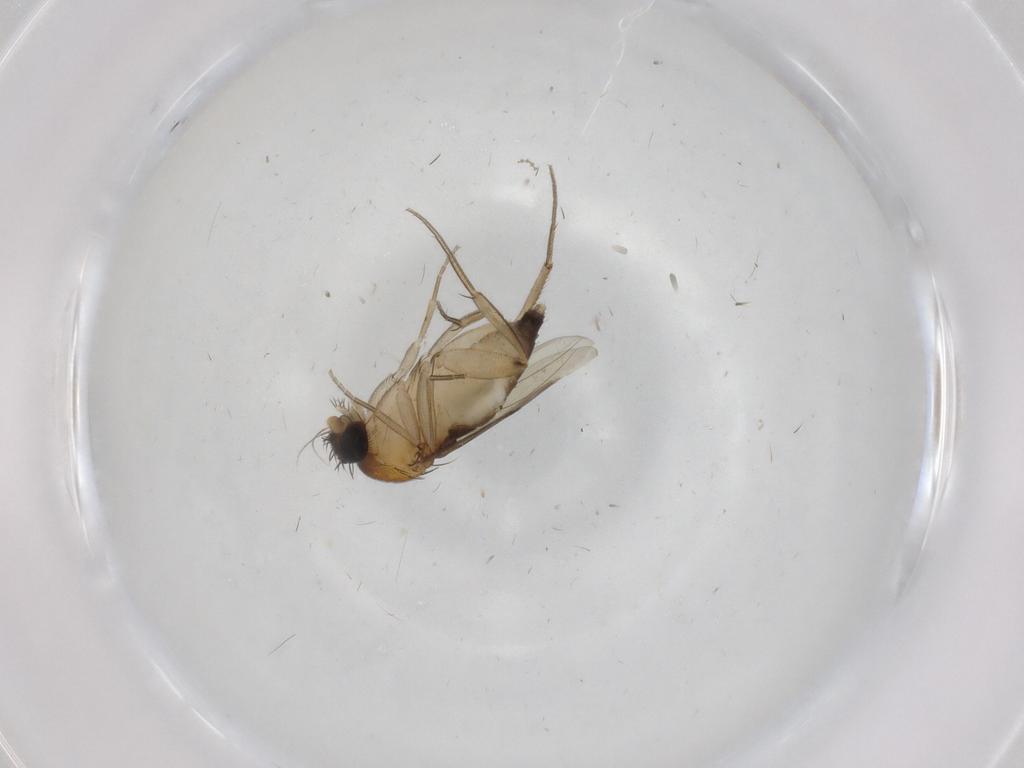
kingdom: Animalia
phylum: Arthropoda
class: Insecta
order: Diptera
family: Phoridae
